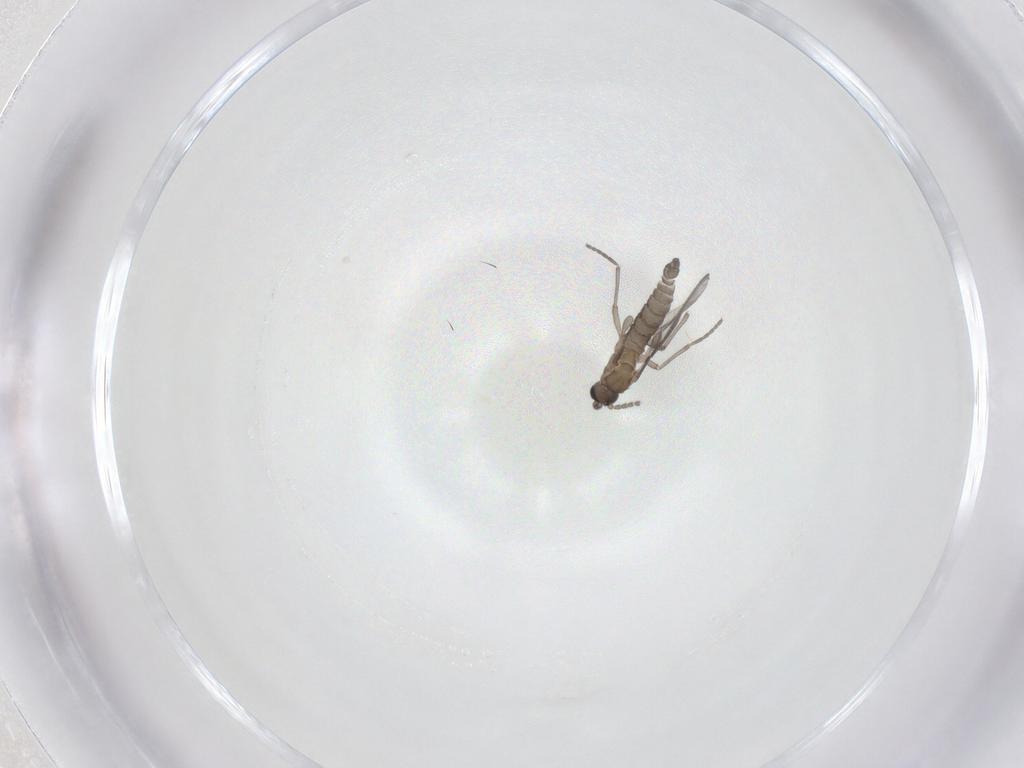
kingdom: Animalia
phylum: Arthropoda
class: Insecta
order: Diptera
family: Sciaridae
